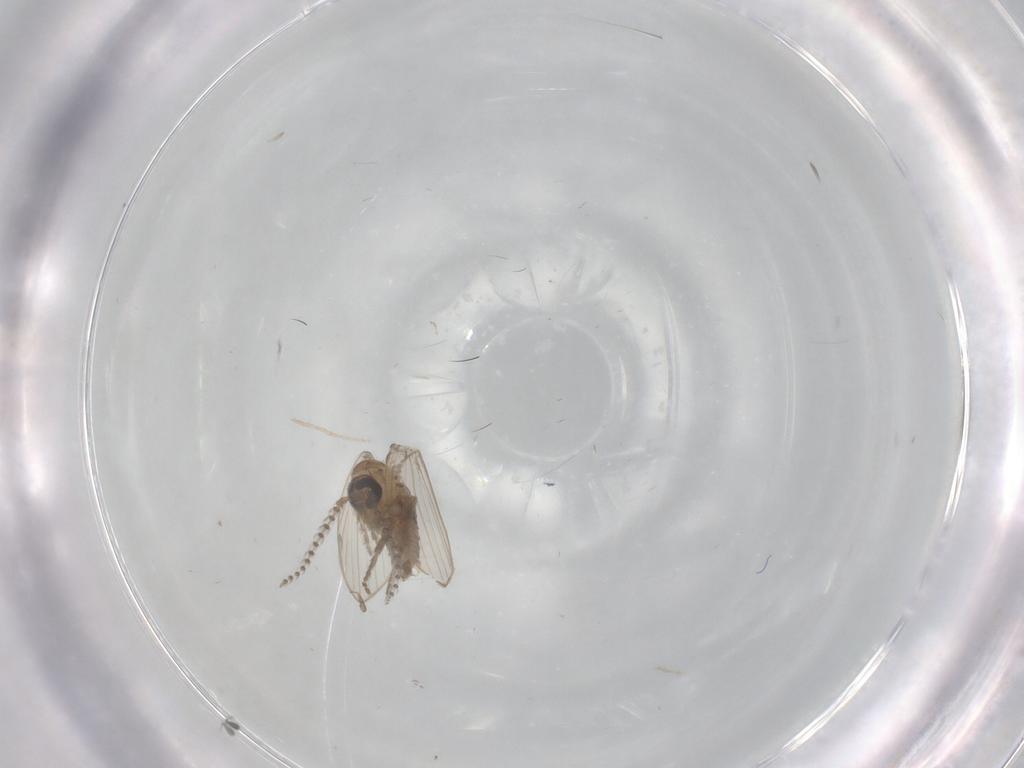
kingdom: Animalia
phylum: Arthropoda
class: Insecta
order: Diptera
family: Psychodidae
